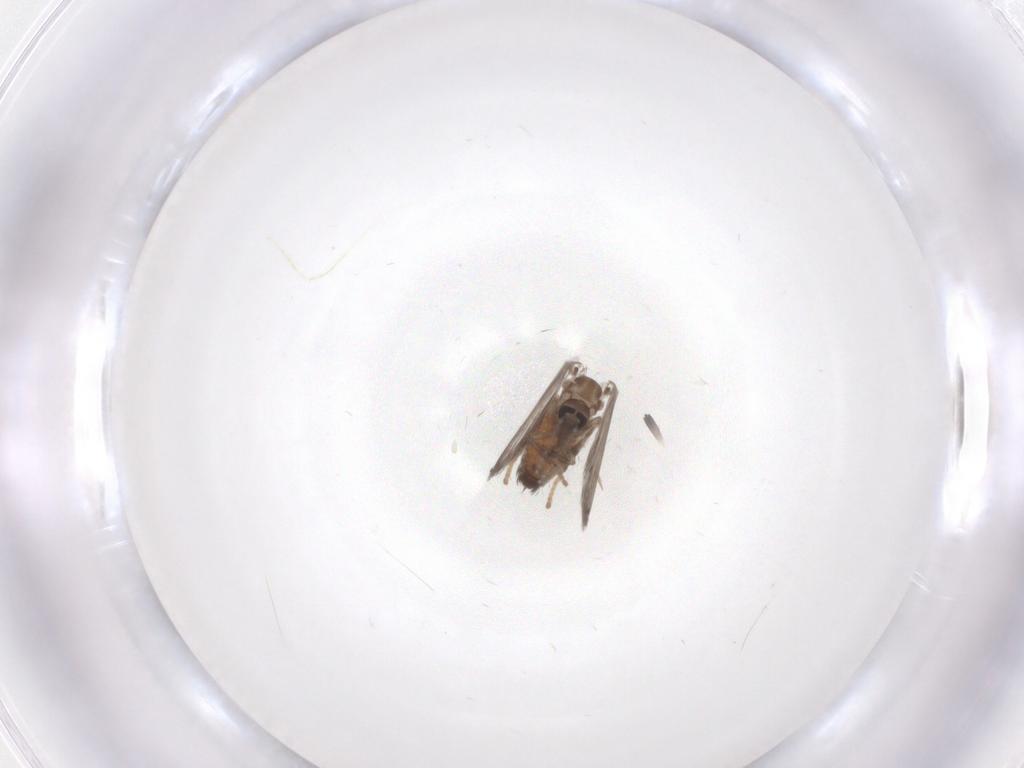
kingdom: Animalia
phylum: Arthropoda
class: Insecta
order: Diptera
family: Psychodidae
